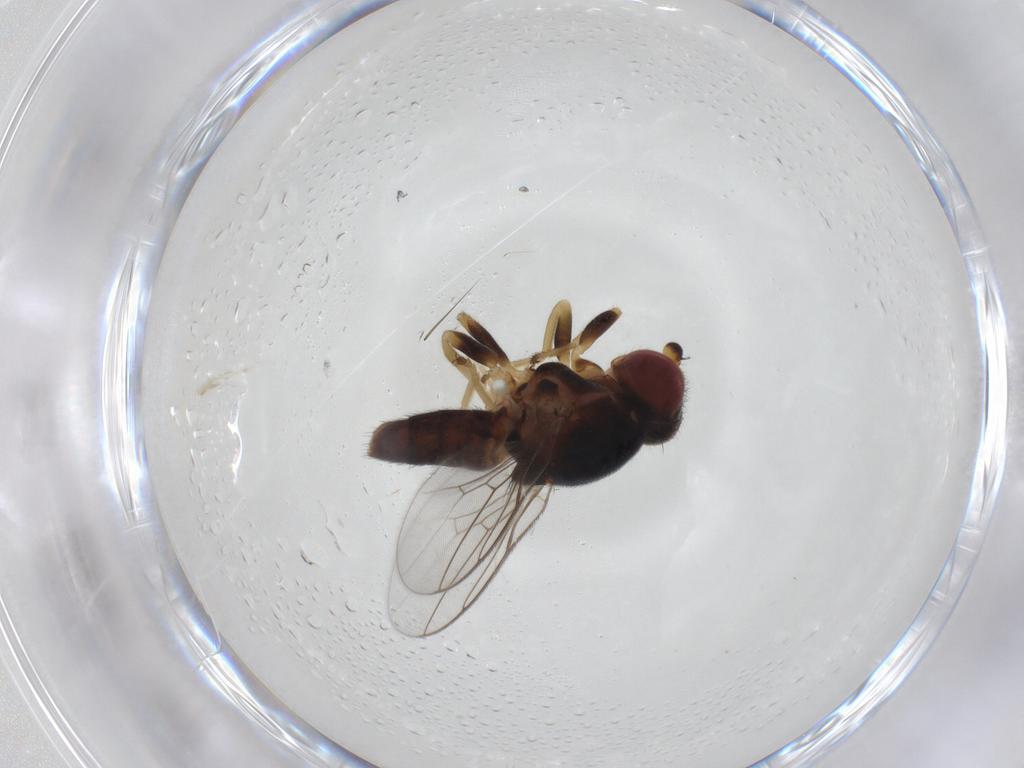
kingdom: Animalia
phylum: Arthropoda
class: Insecta
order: Diptera
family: Chloropidae
